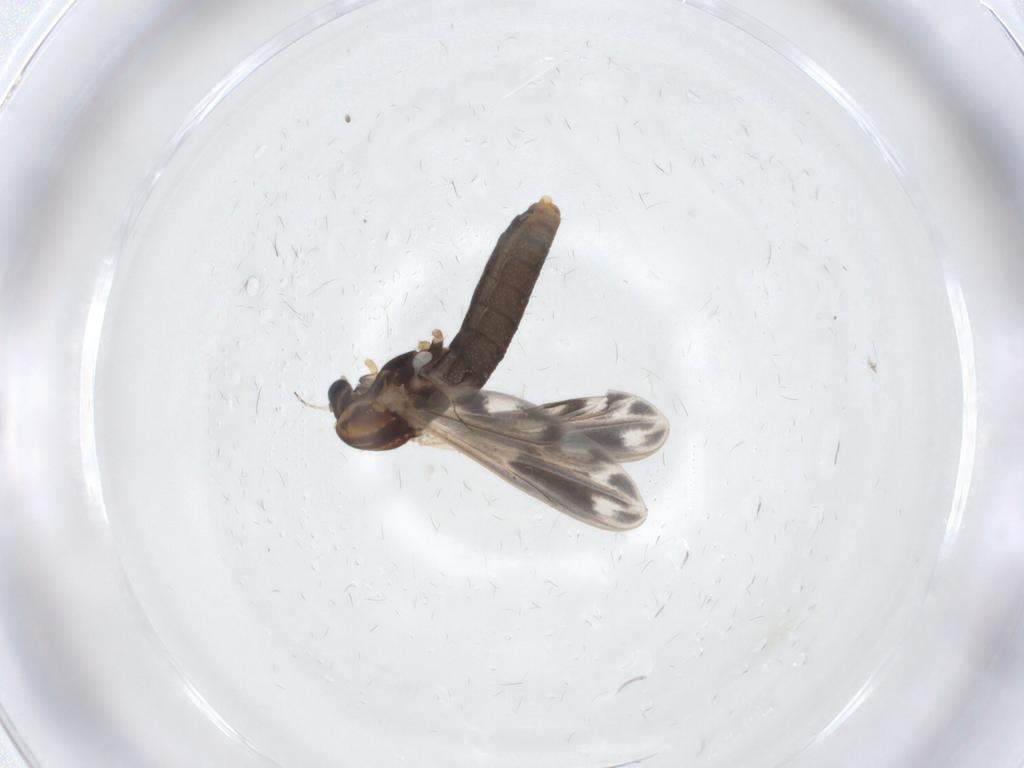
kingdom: Animalia
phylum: Arthropoda
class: Insecta
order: Diptera
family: Chironomidae
